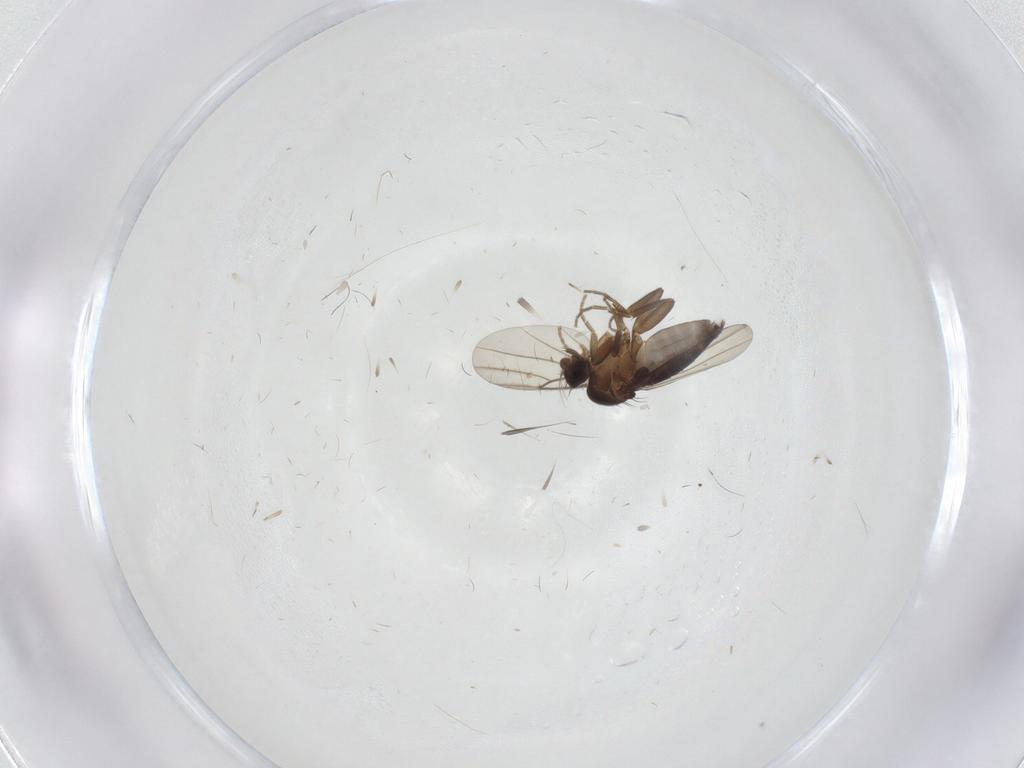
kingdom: Animalia
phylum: Arthropoda
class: Insecta
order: Diptera
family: Phoridae
